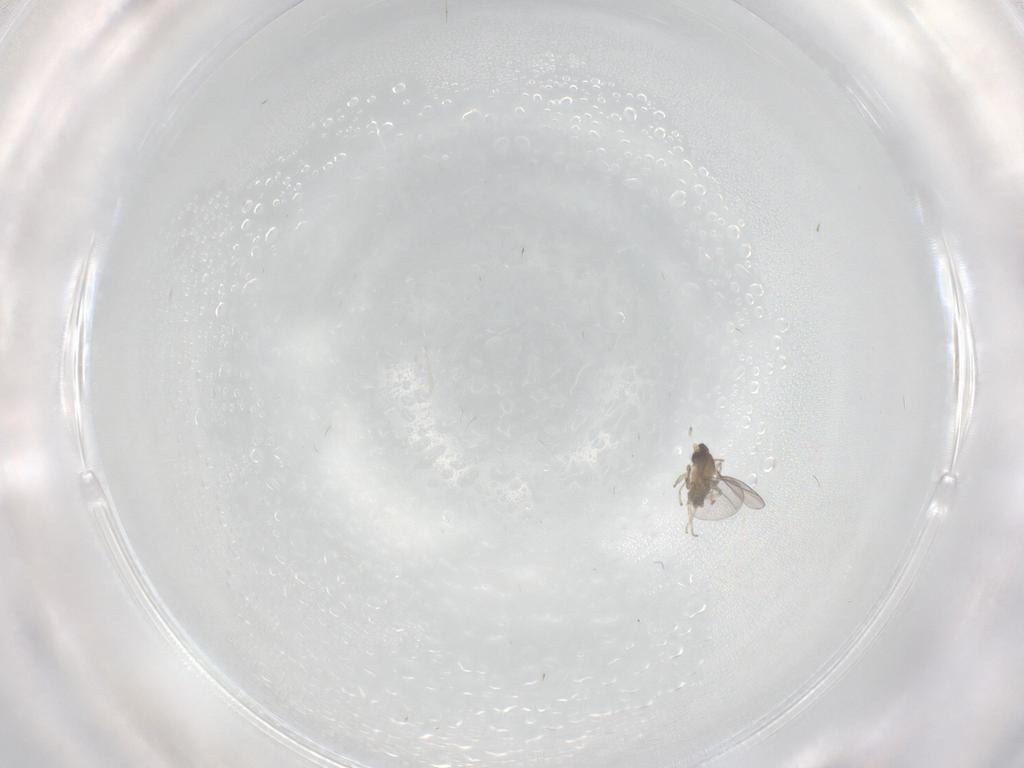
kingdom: Animalia
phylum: Arthropoda
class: Insecta
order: Diptera
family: Cecidomyiidae
